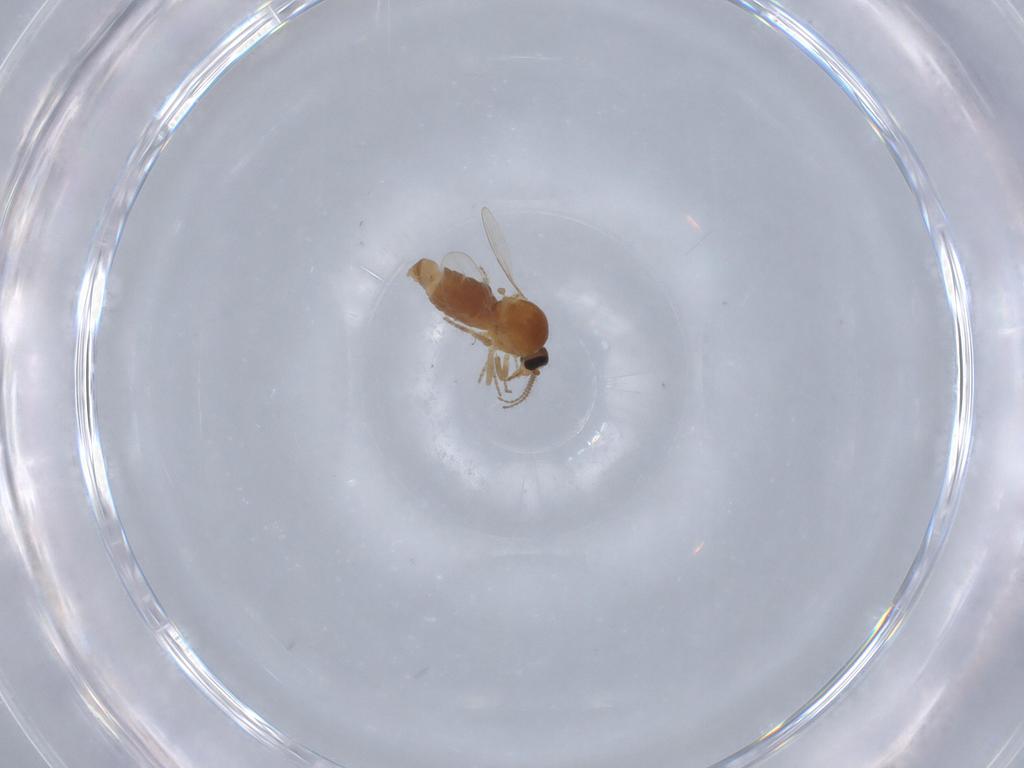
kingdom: Animalia
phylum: Arthropoda
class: Insecta
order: Diptera
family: Ceratopogonidae
